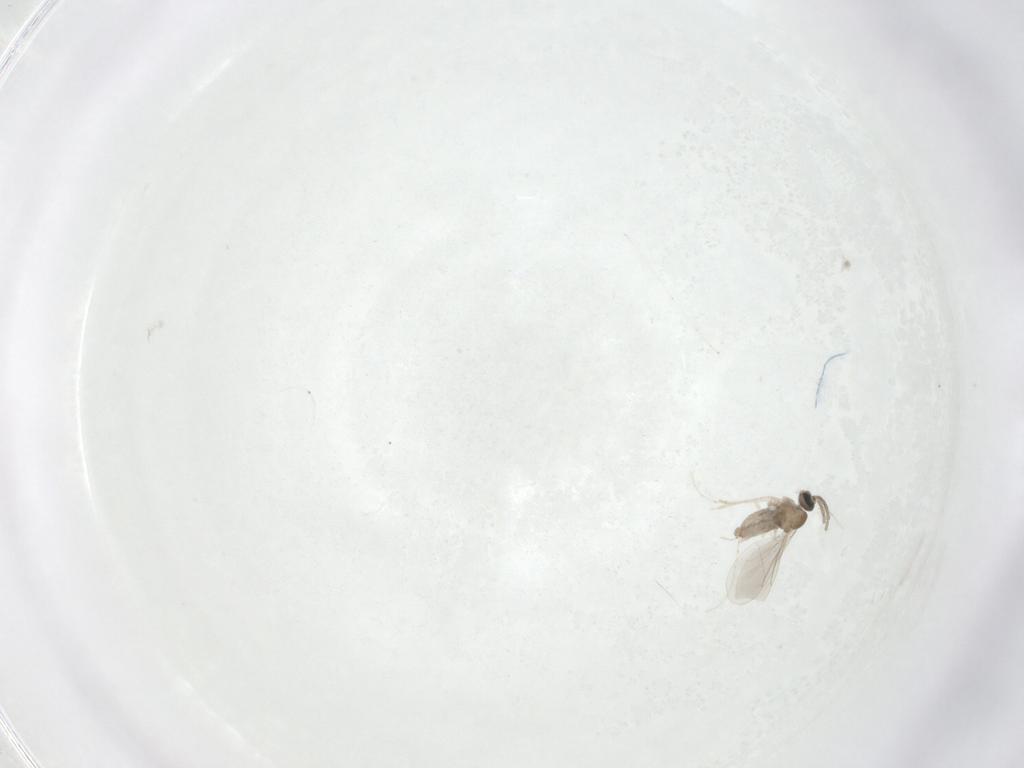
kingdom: Animalia
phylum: Arthropoda
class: Insecta
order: Diptera
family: Cecidomyiidae
